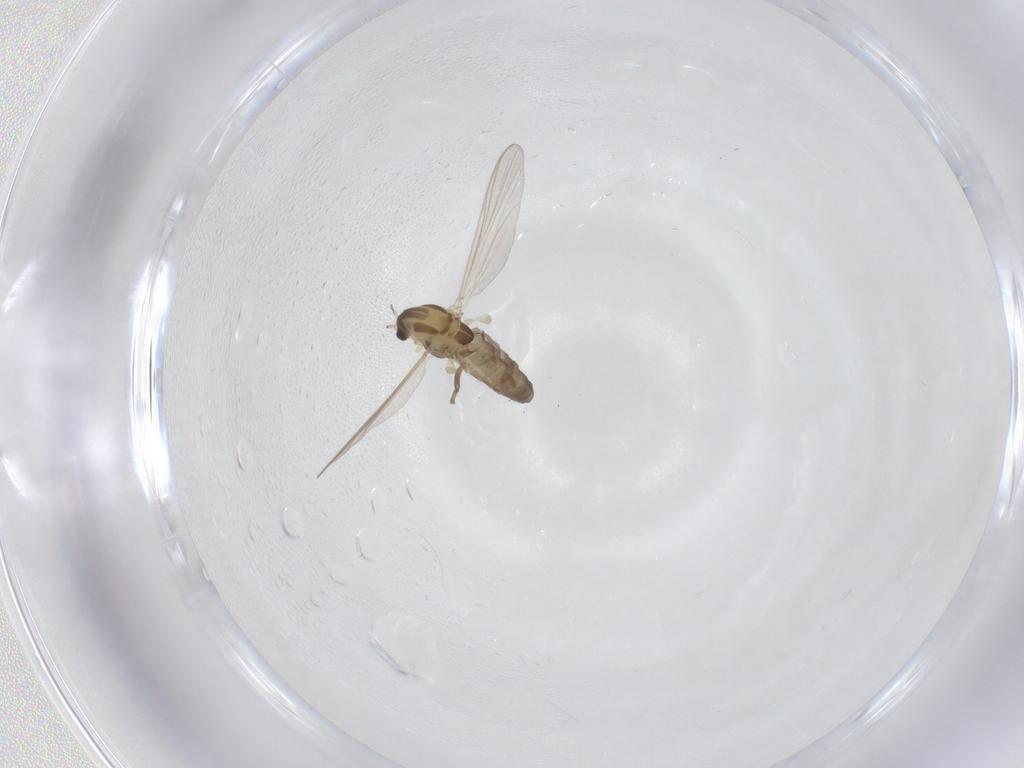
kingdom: Animalia
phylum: Arthropoda
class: Insecta
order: Diptera
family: Chironomidae
